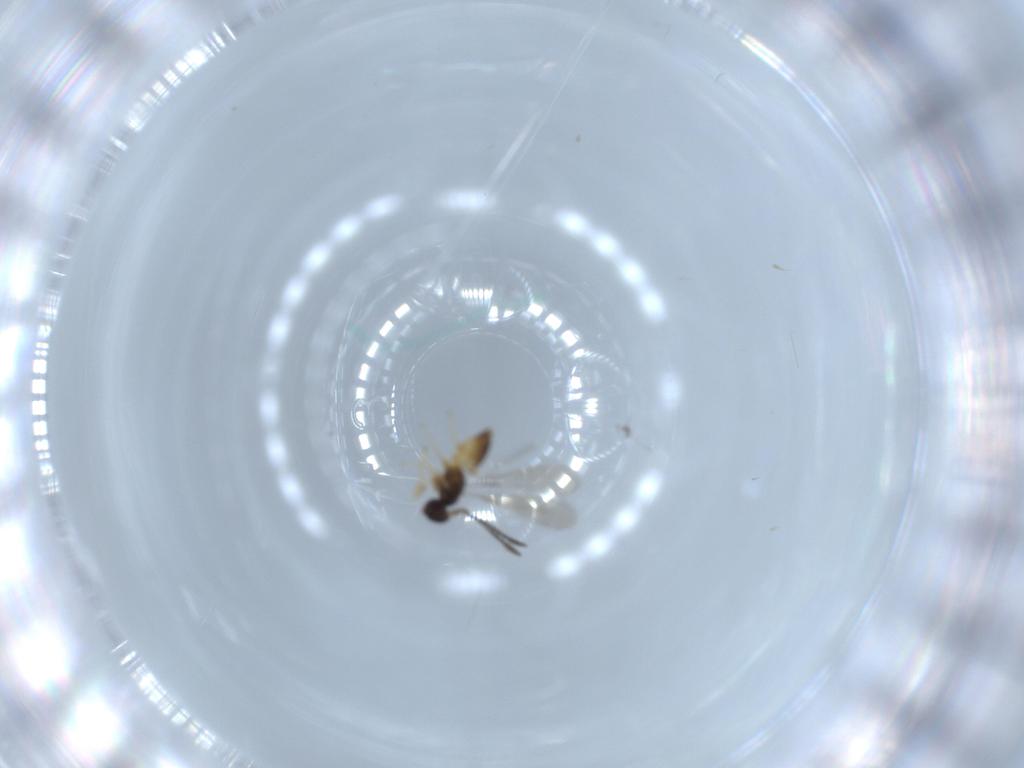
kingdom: Animalia
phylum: Arthropoda
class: Insecta
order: Hymenoptera
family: Mymaridae
